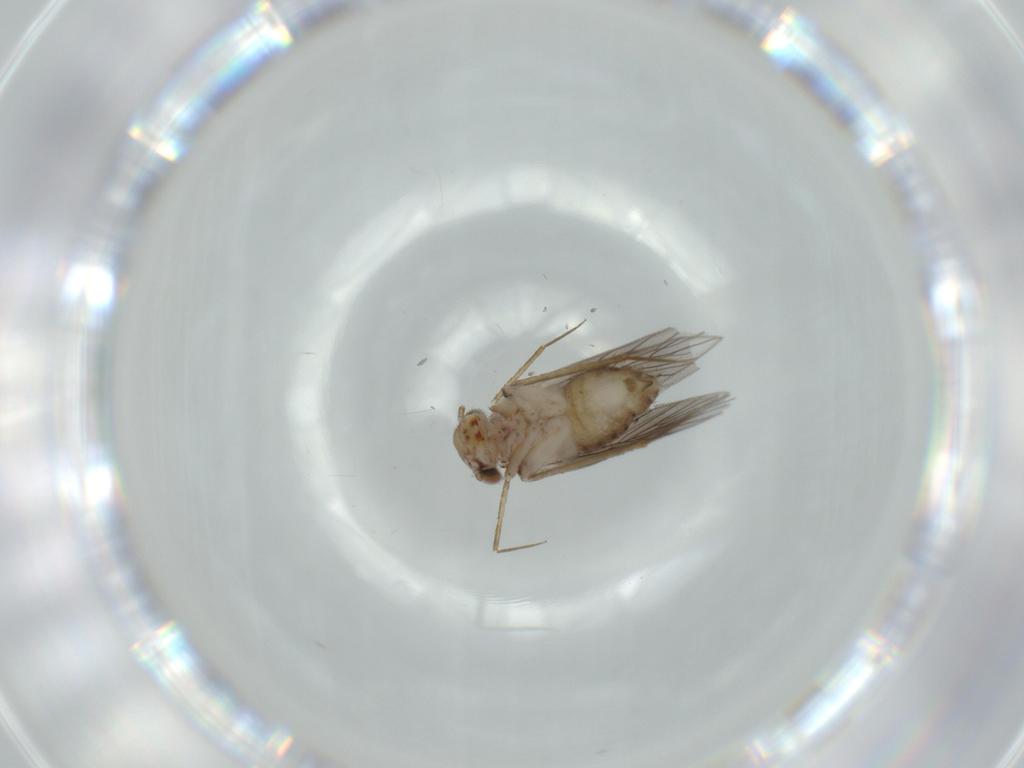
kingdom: Animalia
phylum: Arthropoda
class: Insecta
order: Psocodea
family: Lepidopsocidae
